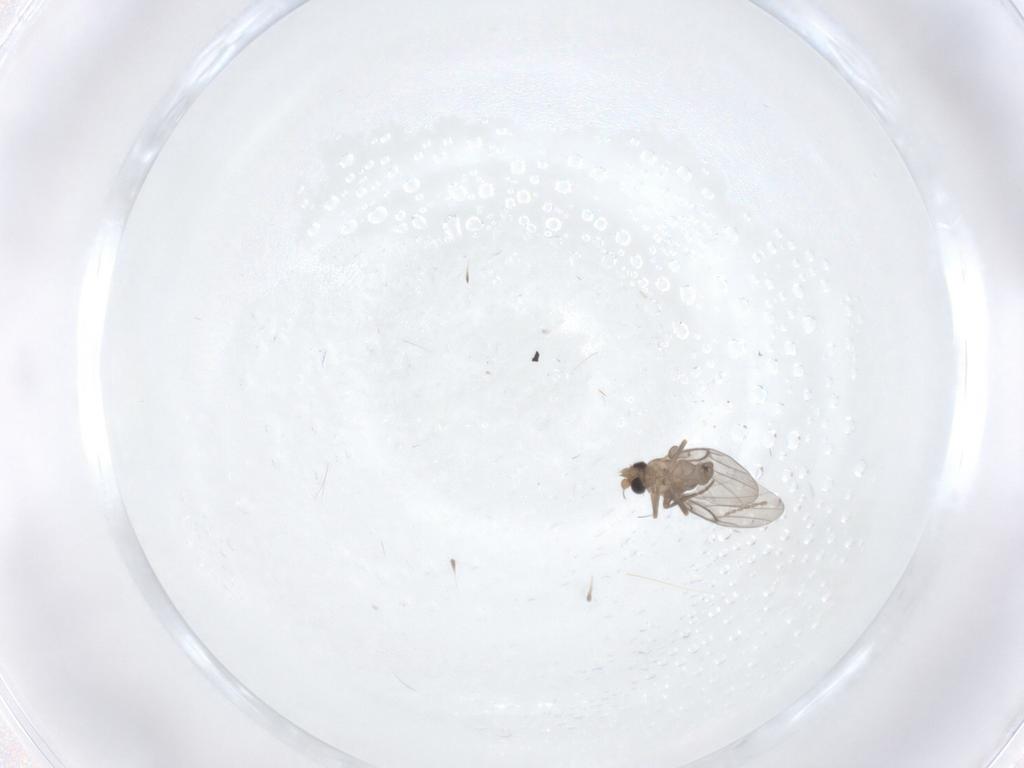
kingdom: Animalia
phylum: Arthropoda
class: Insecta
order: Diptera
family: Cecidomyiidae
